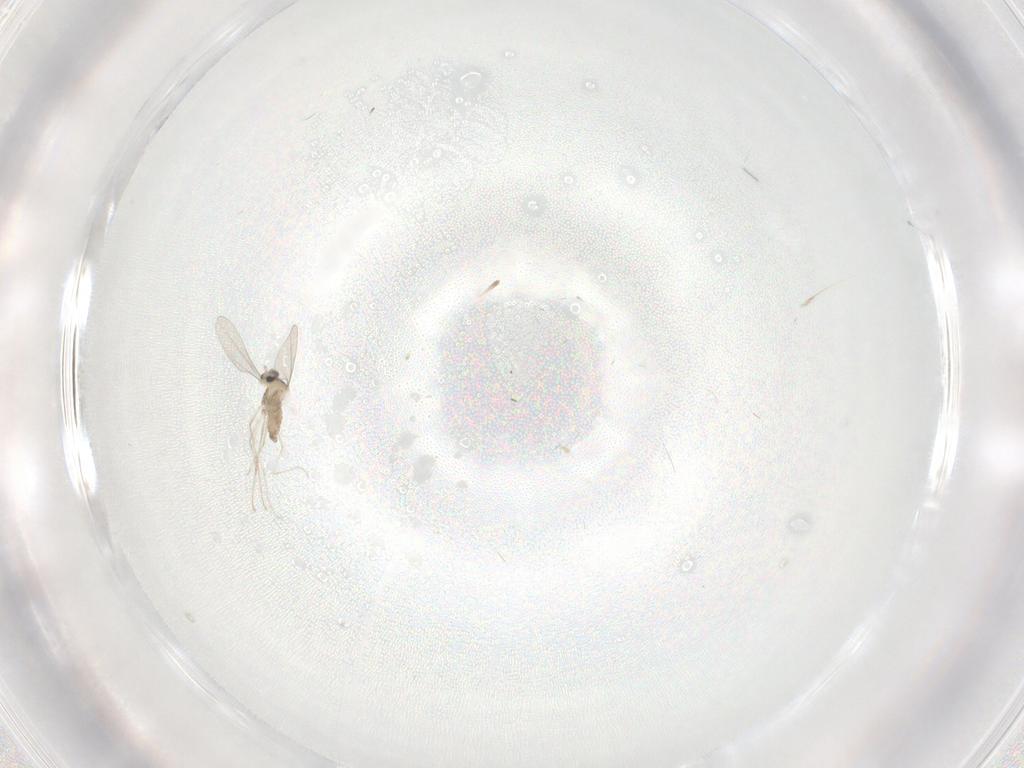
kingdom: Animalia
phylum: Arthropoda
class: Insecta
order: Diptera
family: Cecidomyiidae
